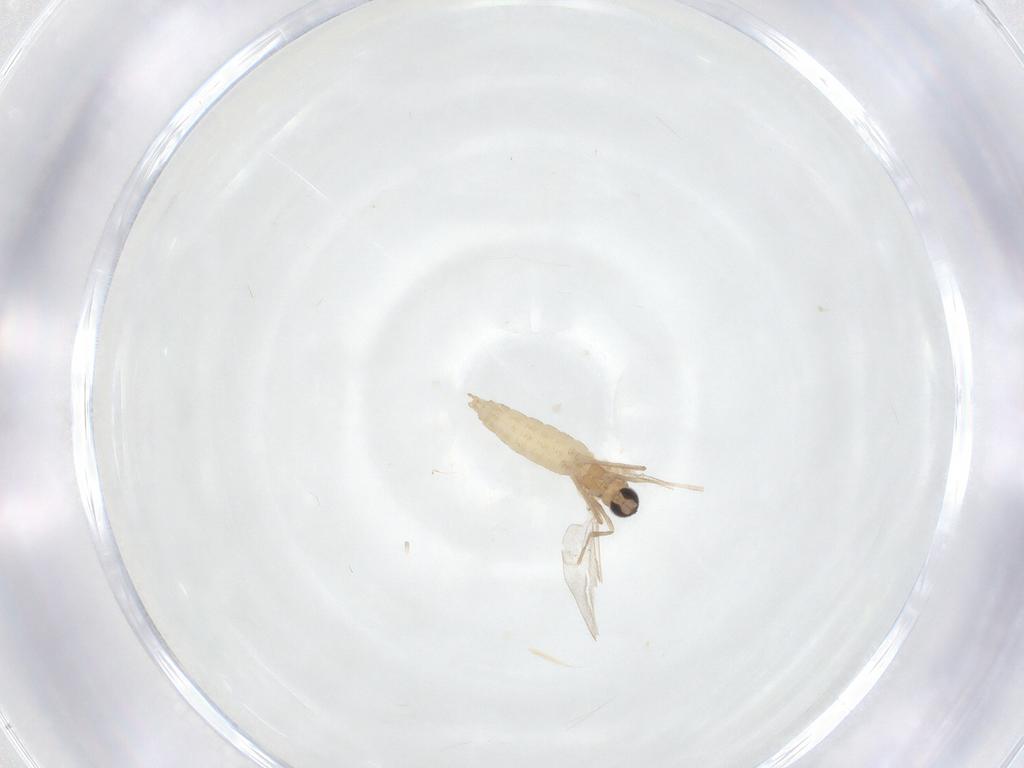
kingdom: Animalia
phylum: Arthropoda
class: Insecta
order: Diptera
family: Cecidomyiidae
